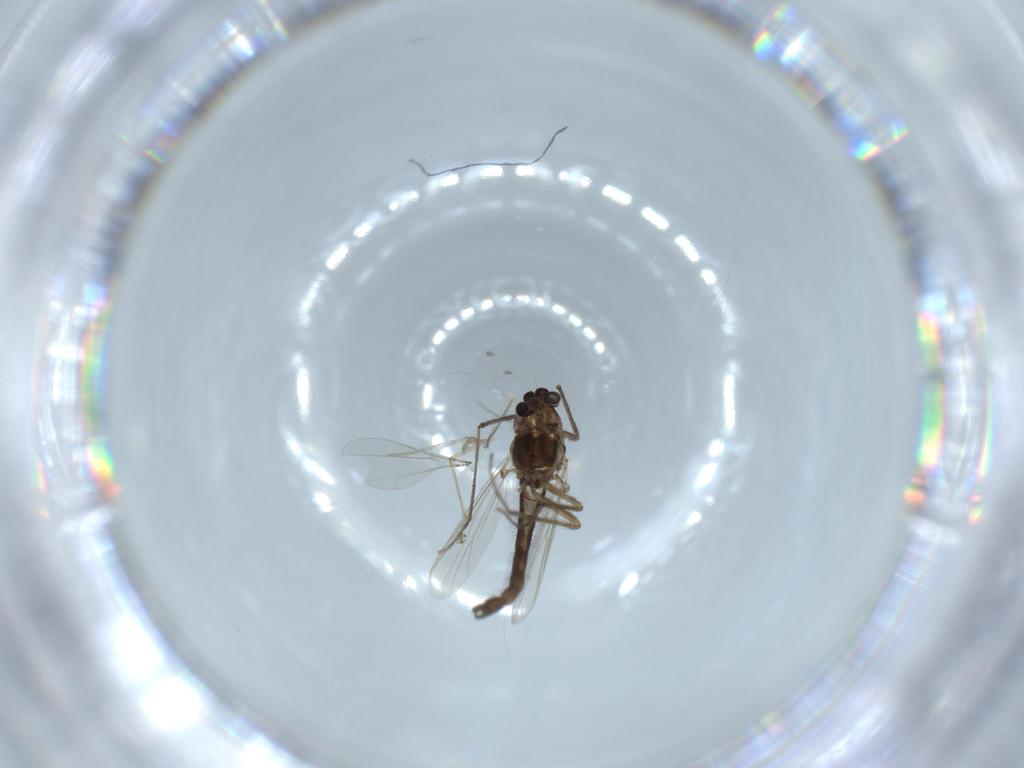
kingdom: Animalia
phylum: Arthropoda
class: Insecta
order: Diptera
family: Chironomidae
